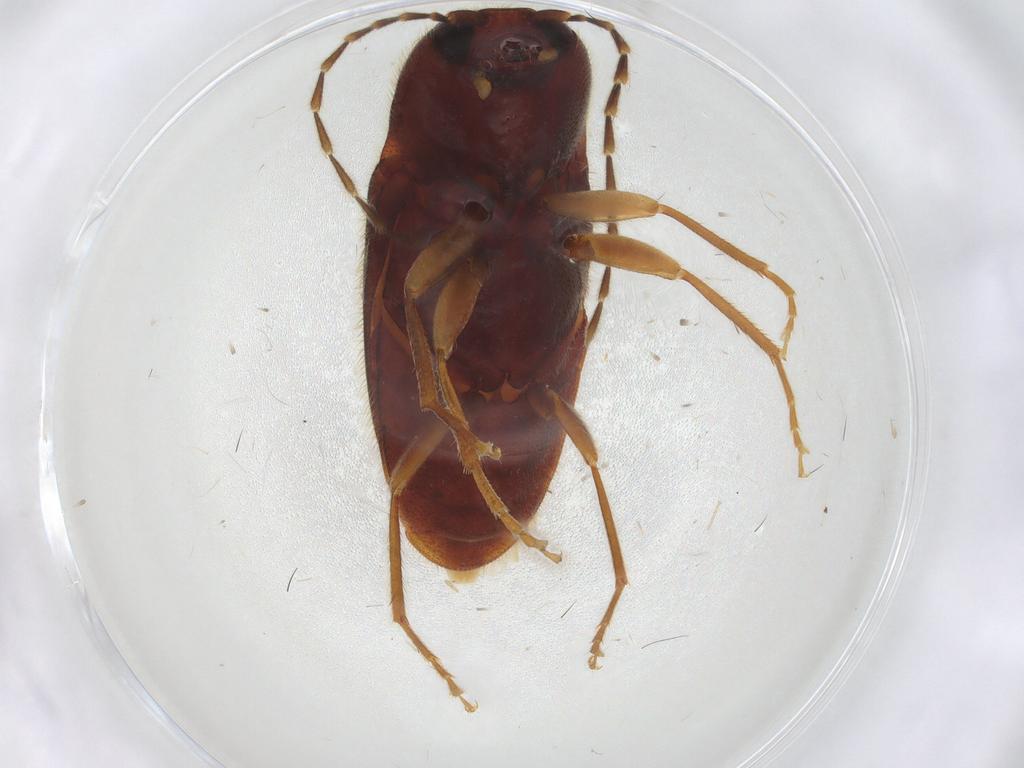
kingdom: Animalia
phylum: Arthropoda
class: Insecta
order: Coleoptera
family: Elateridae
